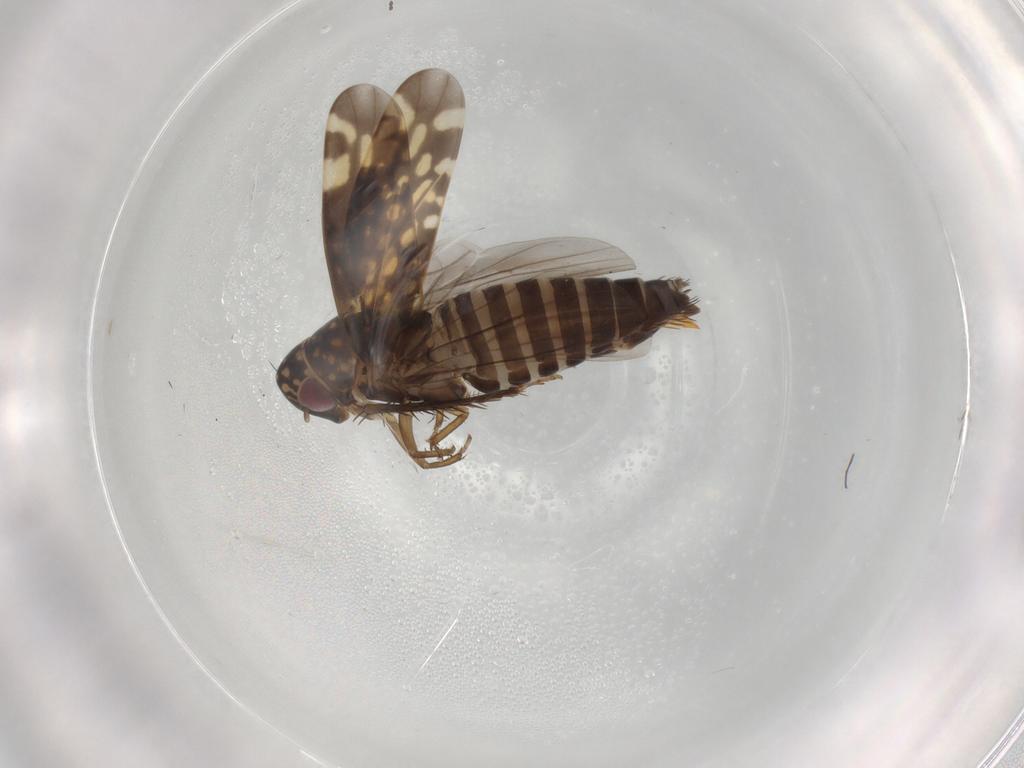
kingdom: Animalia
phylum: Arthropoda
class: Insecta
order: Hemiptera
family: Cicadellidae
